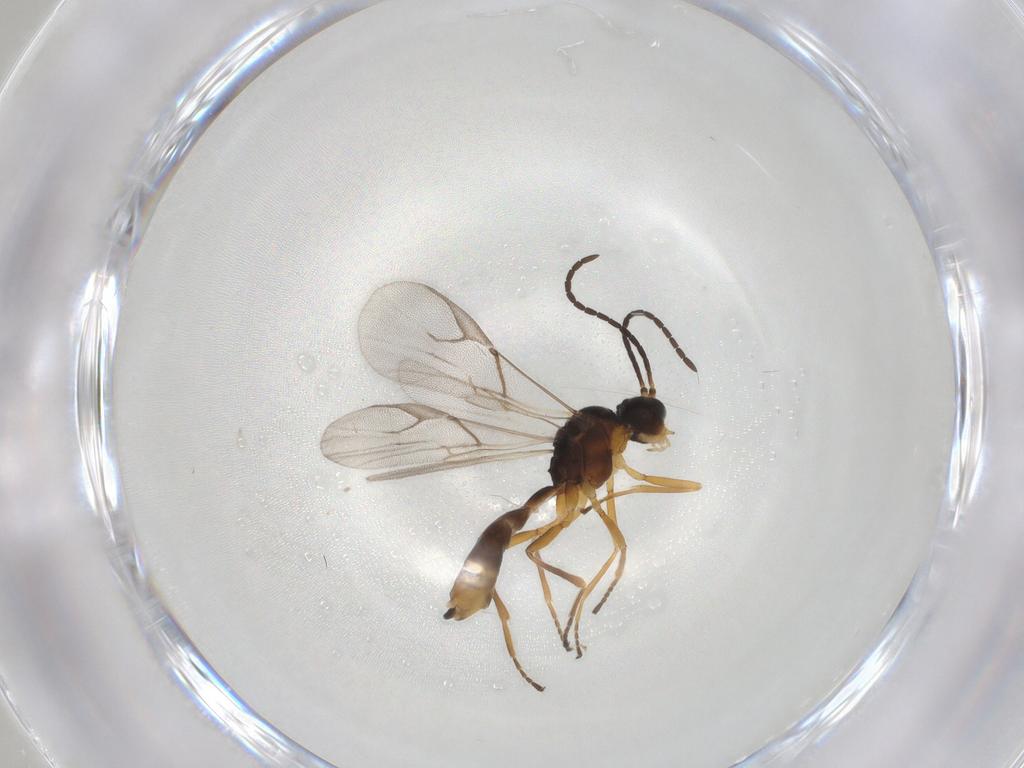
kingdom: Animalia
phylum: Arthropoda
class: Insecta
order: Hymenoptera
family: Braconidae
